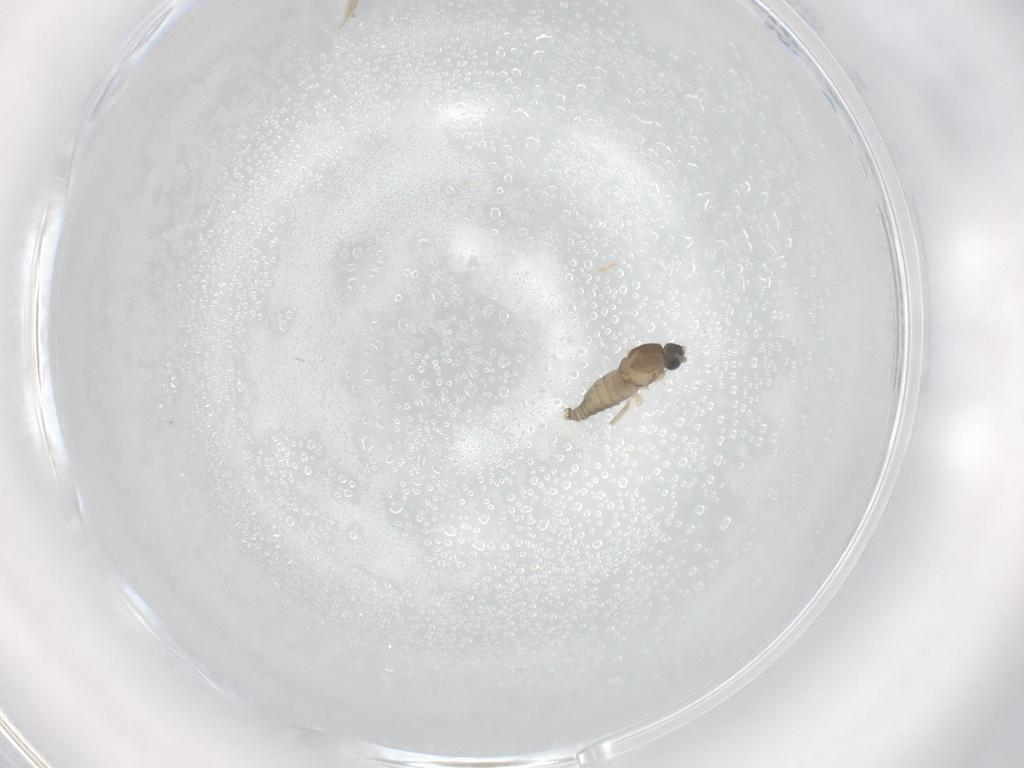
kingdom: Animalia
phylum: Arthropoda
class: Insecta
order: Diptera
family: Cecidomyiidae
